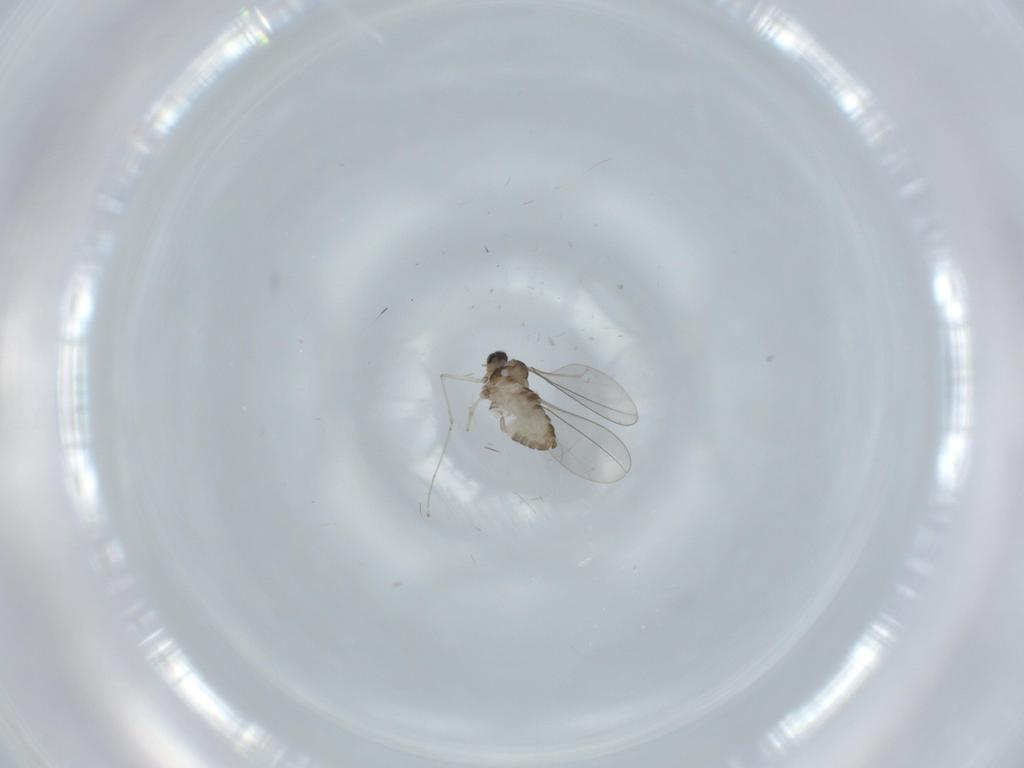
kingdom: Animalia
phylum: Arthropoda
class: Insecta
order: Diptera
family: Cecidomyiidae
